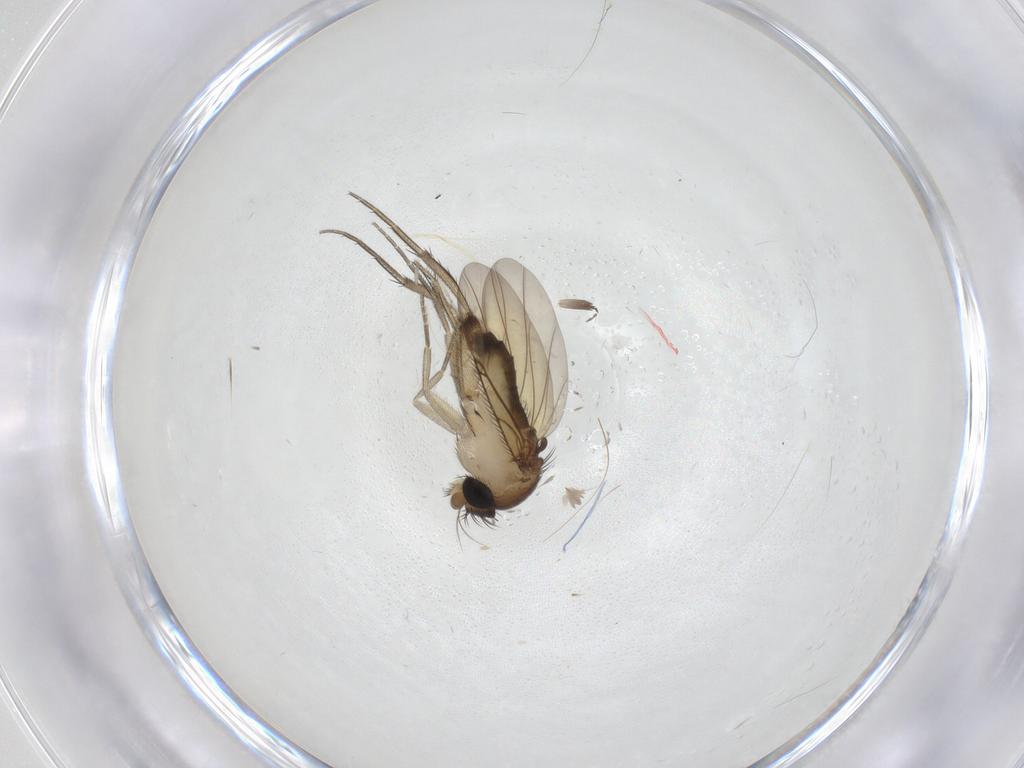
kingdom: Animalia
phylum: Arthropoda
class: Insecta
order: Diptera
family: Phoridae
